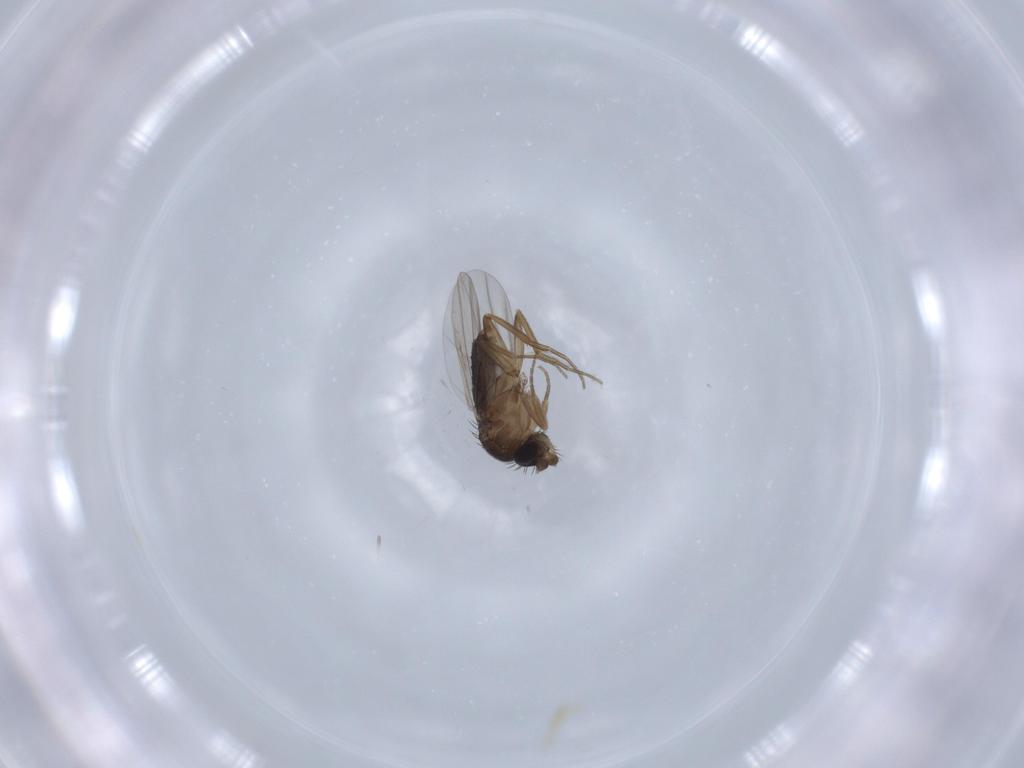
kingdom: Animalia
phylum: Arthropoda
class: Insecta
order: Diptera
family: Phoridae
